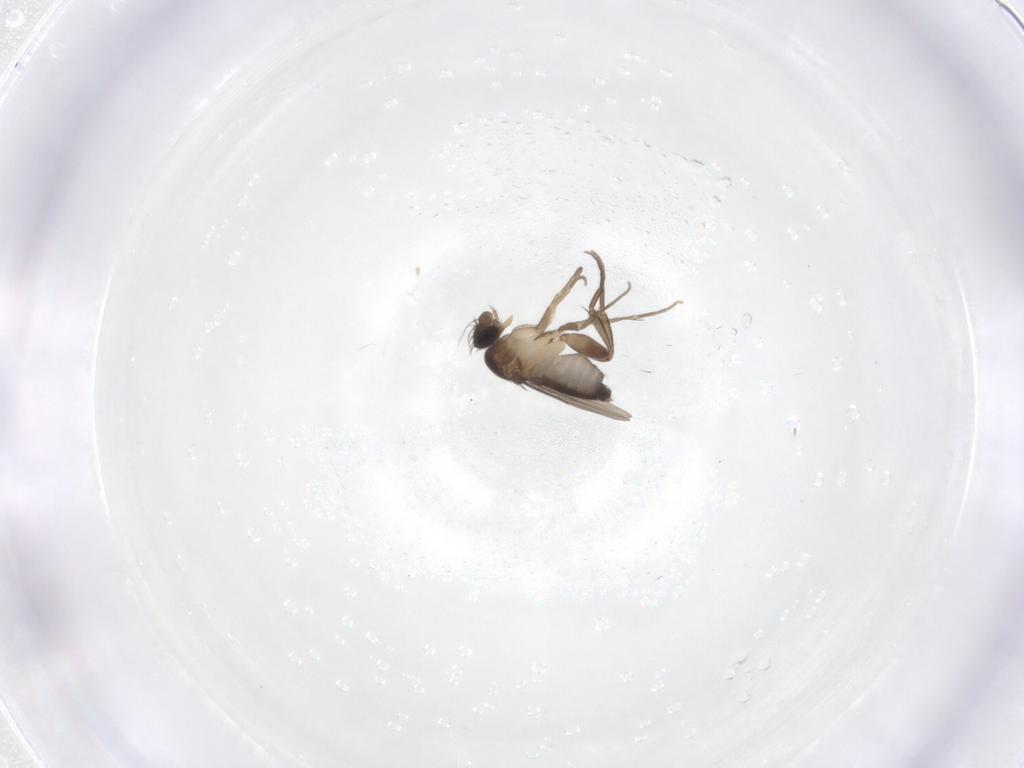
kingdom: Animalia
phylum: Arthropoda
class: Insecta
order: Diptera
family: Phoridae
